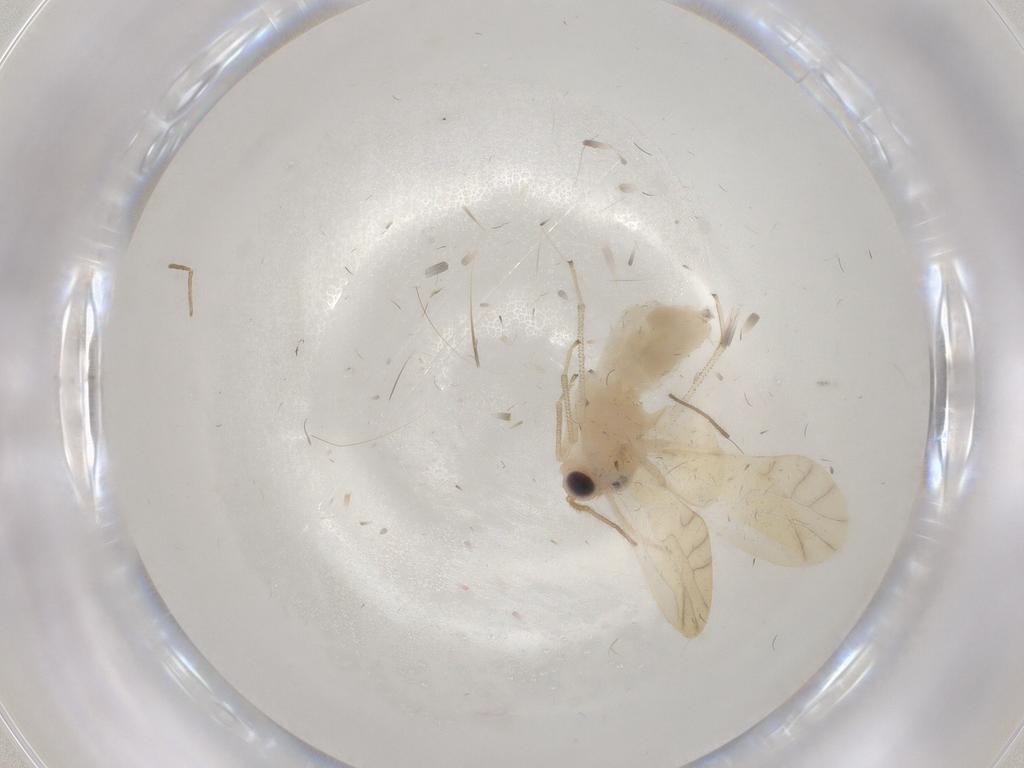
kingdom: Animalia
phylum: Arthropoda
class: Insecta
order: Psocodea
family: Caeciliusidae
